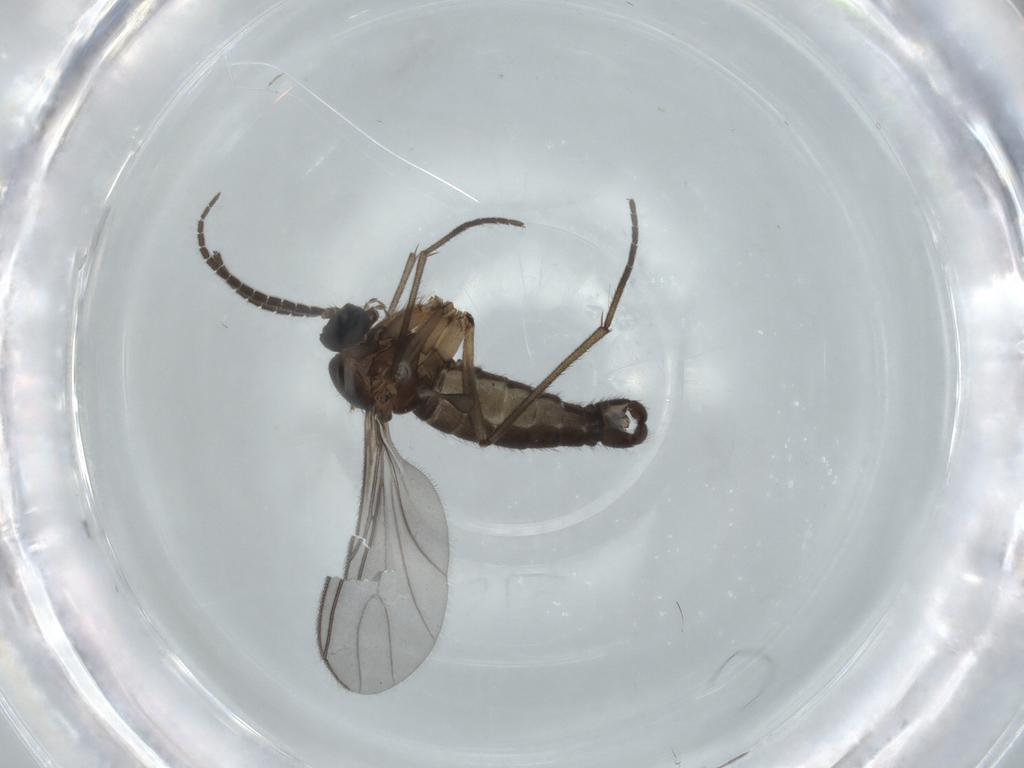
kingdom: Animalia
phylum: Arthropoda
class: Insecta
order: Diptera
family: Sciaridae
